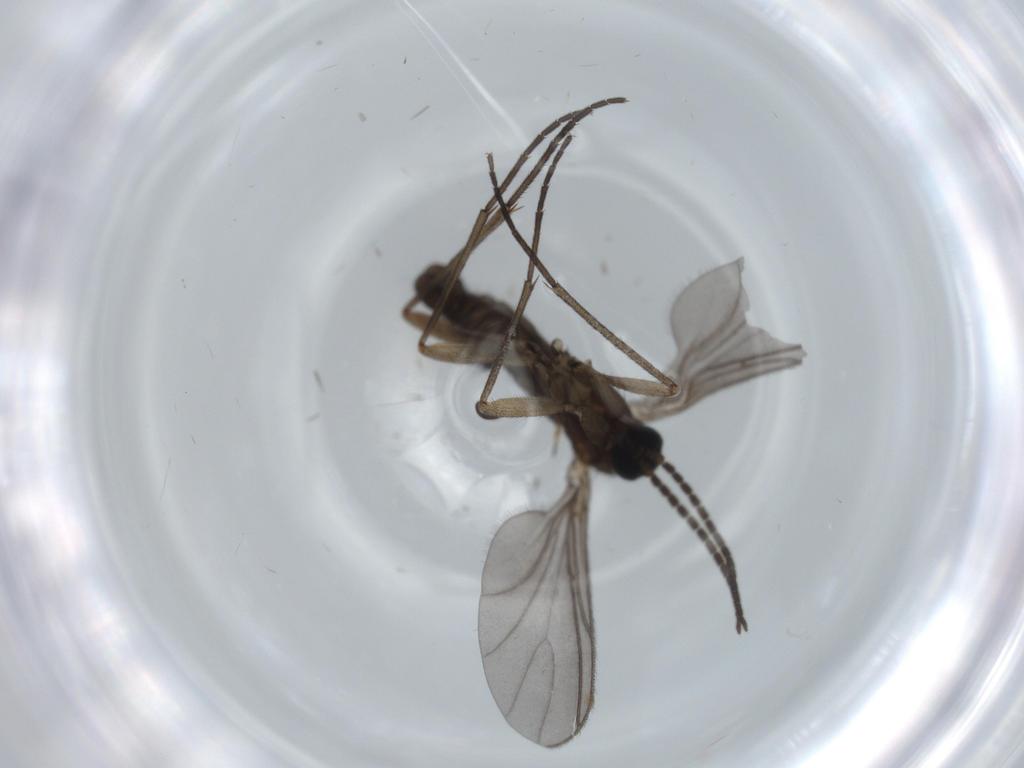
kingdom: Animalia
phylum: Arthropoda
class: Insecta
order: Diptera
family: Sciaridae
